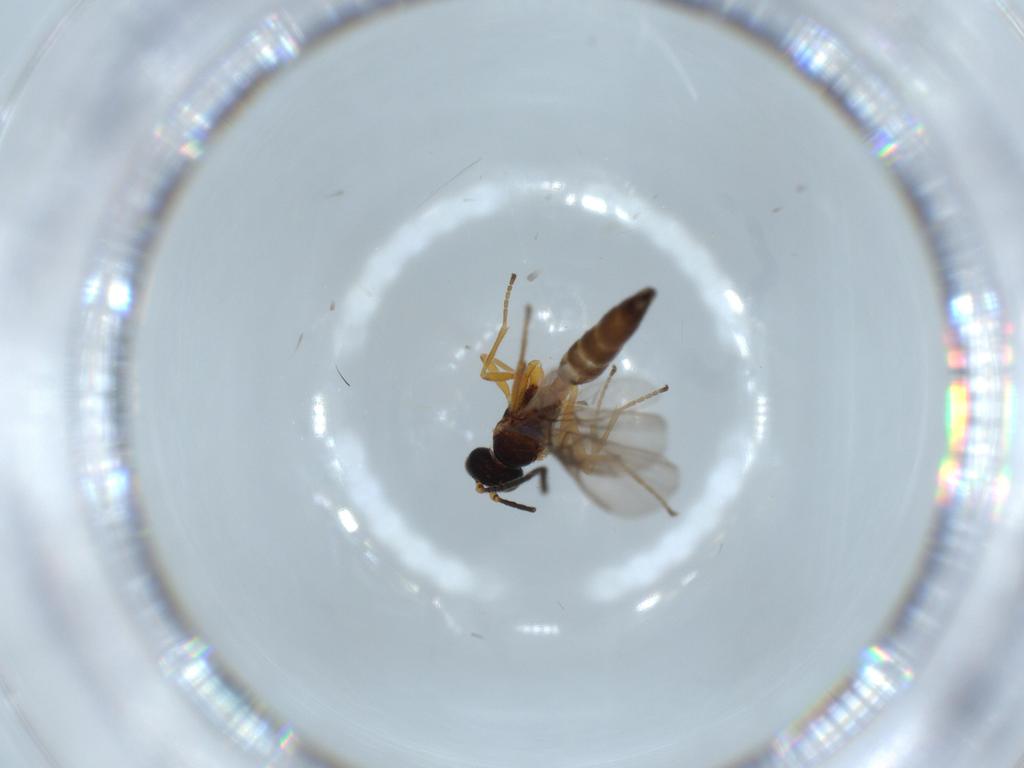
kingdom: Animalia
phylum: Arthropoda
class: Insecta
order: Hymenoptera
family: Braconidae
